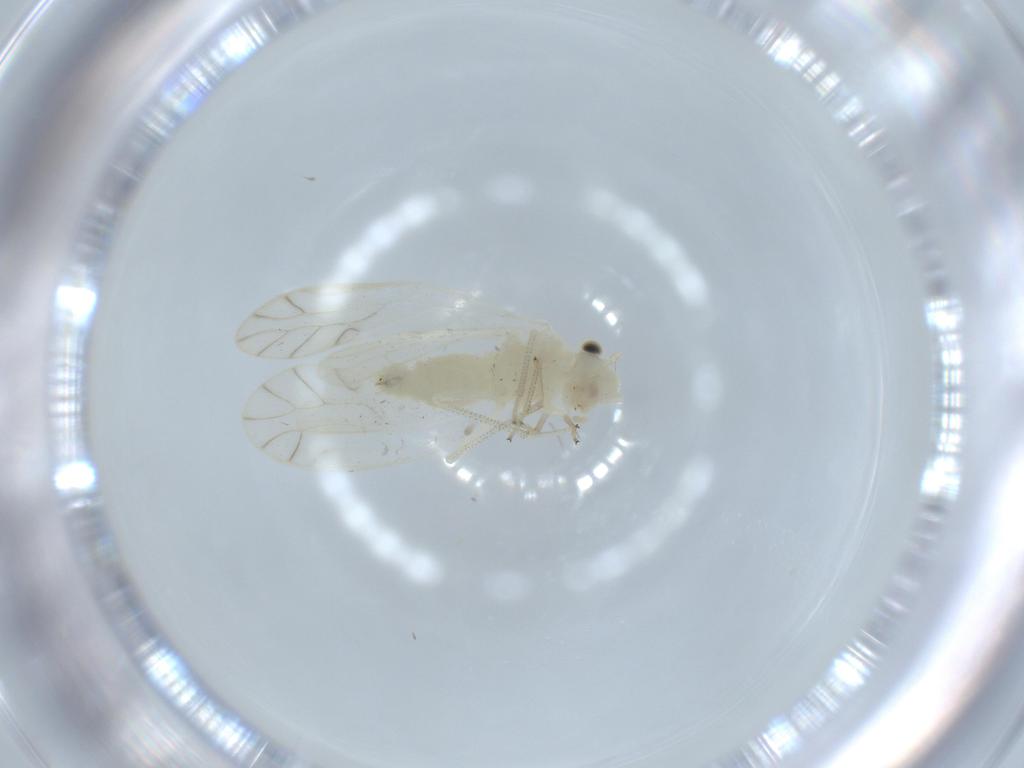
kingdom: Animalia
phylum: Arthropoda
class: Insecta
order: Psocodea
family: Caeciliusidae
